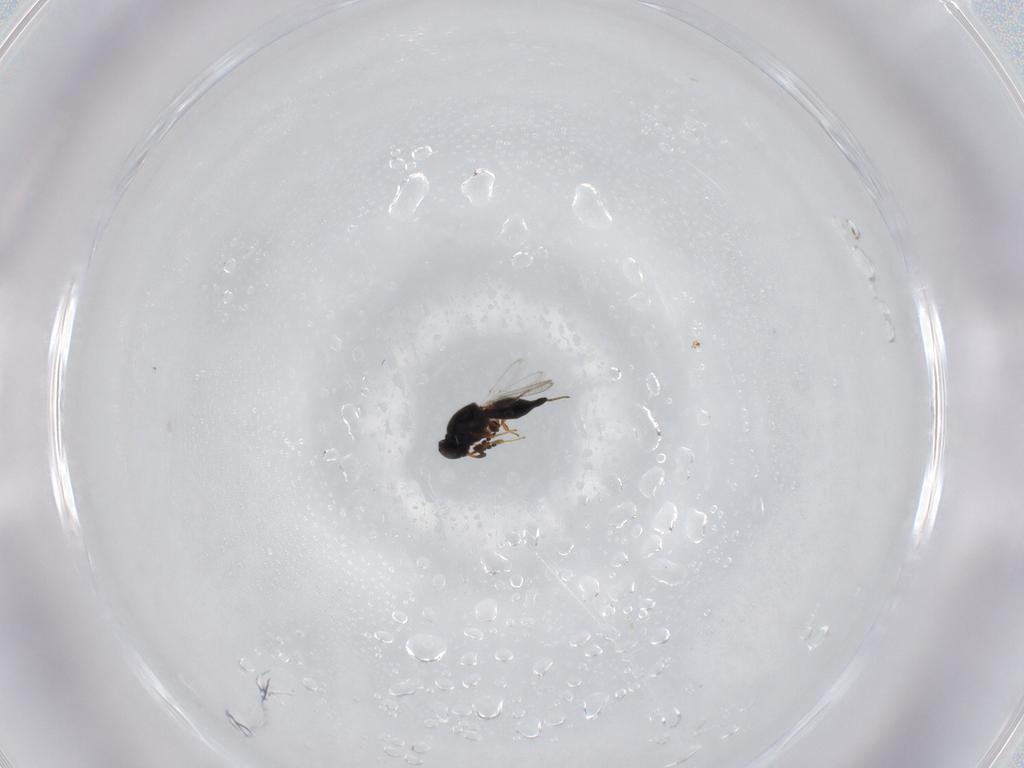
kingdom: Animalia
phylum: Arthropoda
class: Insecta
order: Hymenoptera
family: Platygastridae
